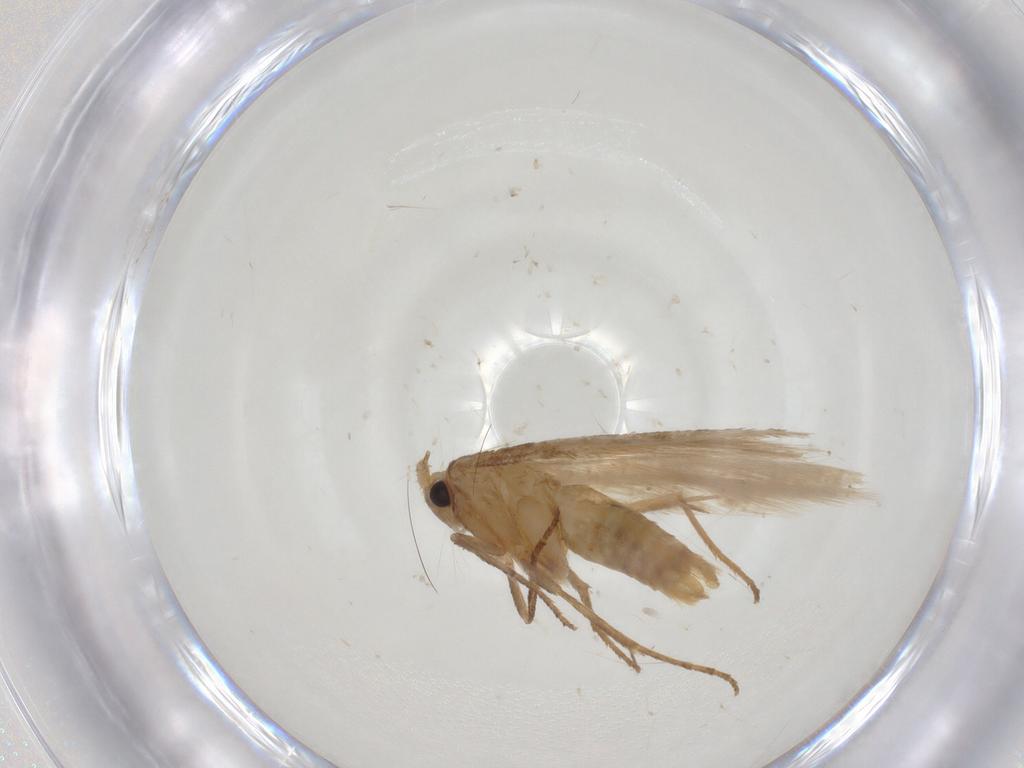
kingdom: Animalia
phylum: Arthropoda
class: Insecta
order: Lepidoptera
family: Bucculatricidae
